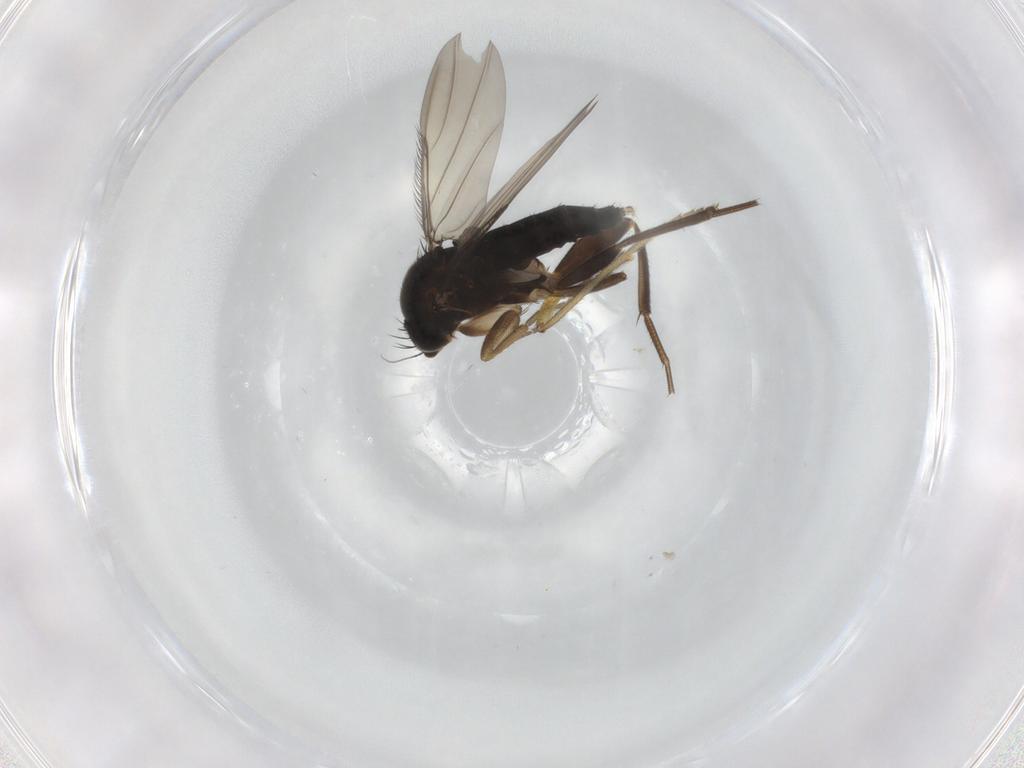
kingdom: Animalia
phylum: Arthropoda
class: Insecta
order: Diptera
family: Hybotidae
